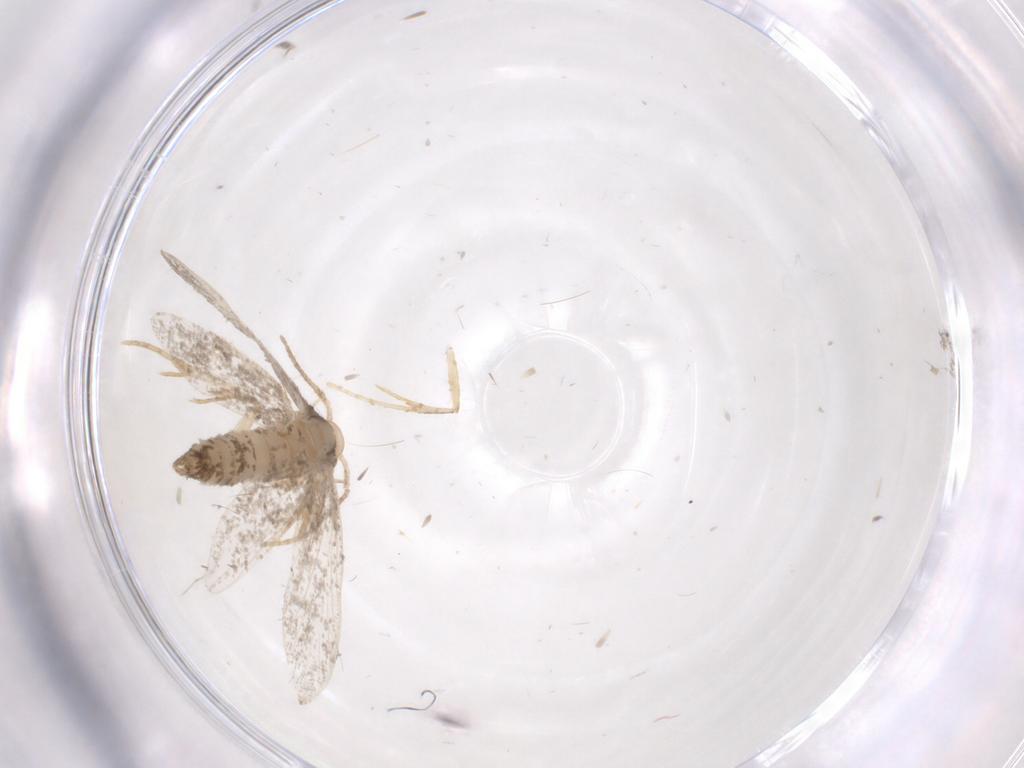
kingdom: Animalia
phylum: Arthropoda
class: Insecta
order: Lepidoptera
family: Psychidae
